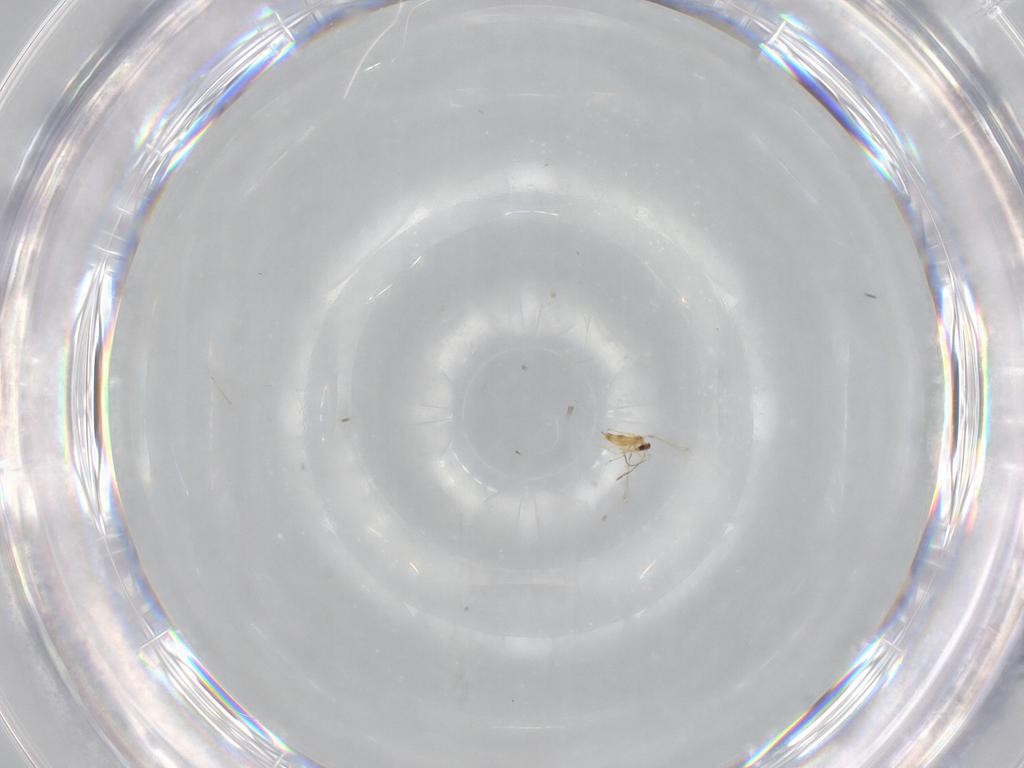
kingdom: Animalia
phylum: Arthropoda
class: Insecta
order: Hymenoptera
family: Mymaridae
